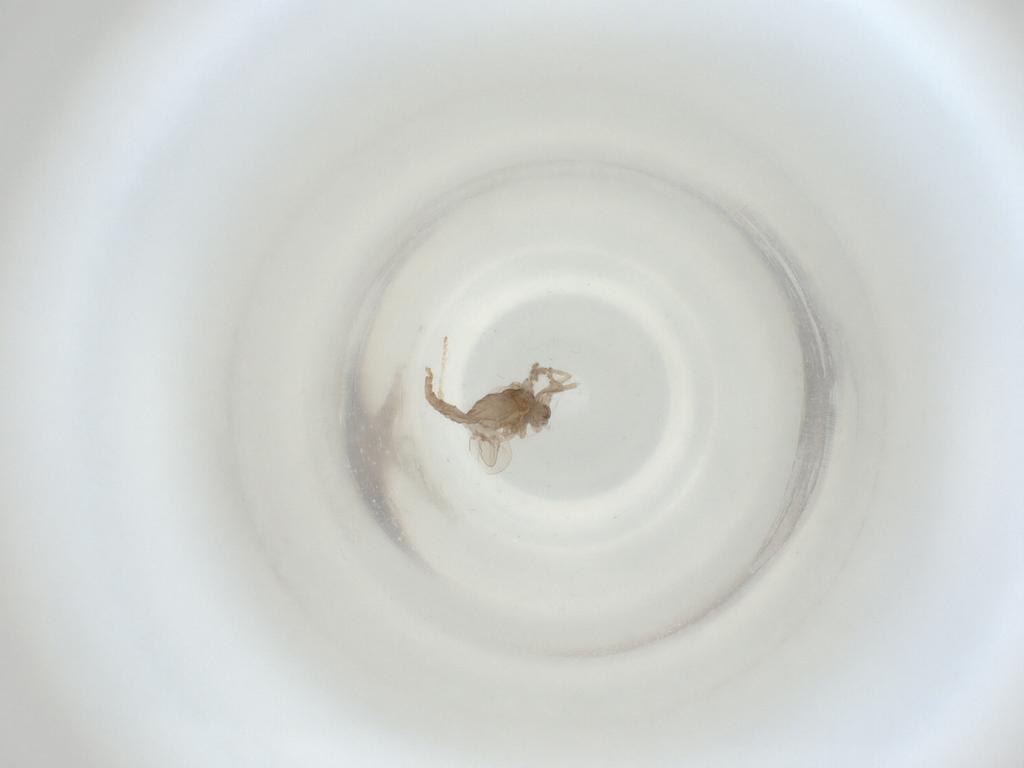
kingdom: Animalia
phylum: Arthropoda
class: Insecta
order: Diptera
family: Cecidomyiidae
